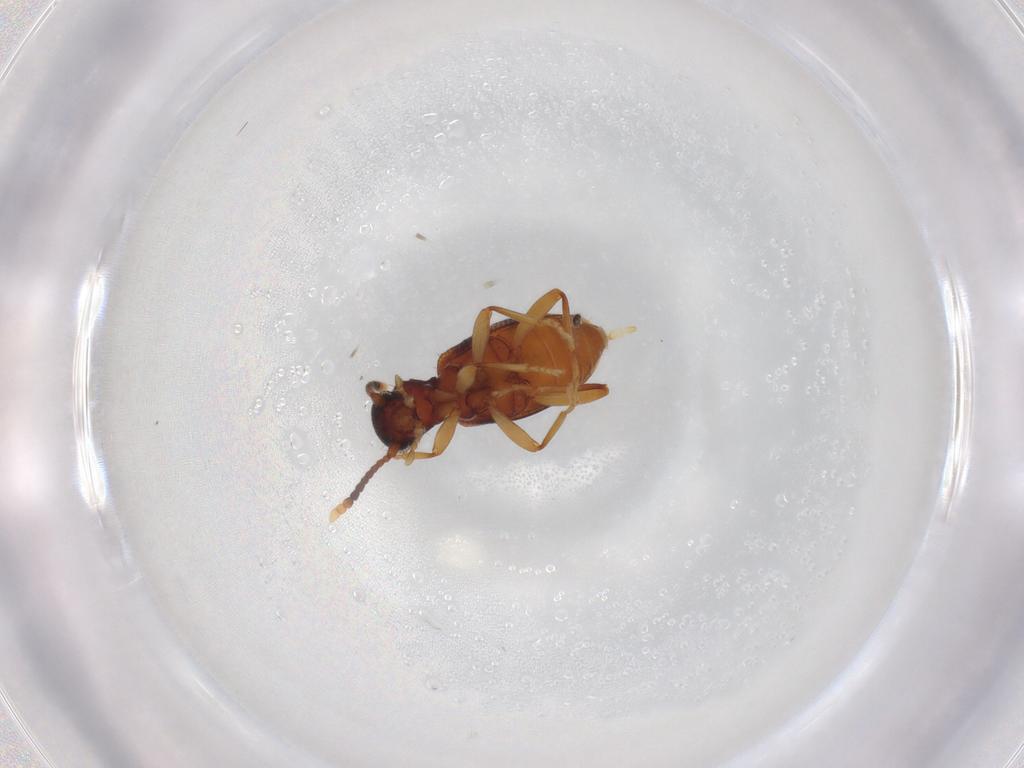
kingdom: Animalia
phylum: Arthropoda
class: Insecta
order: Coleoptera
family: Anthicidae
